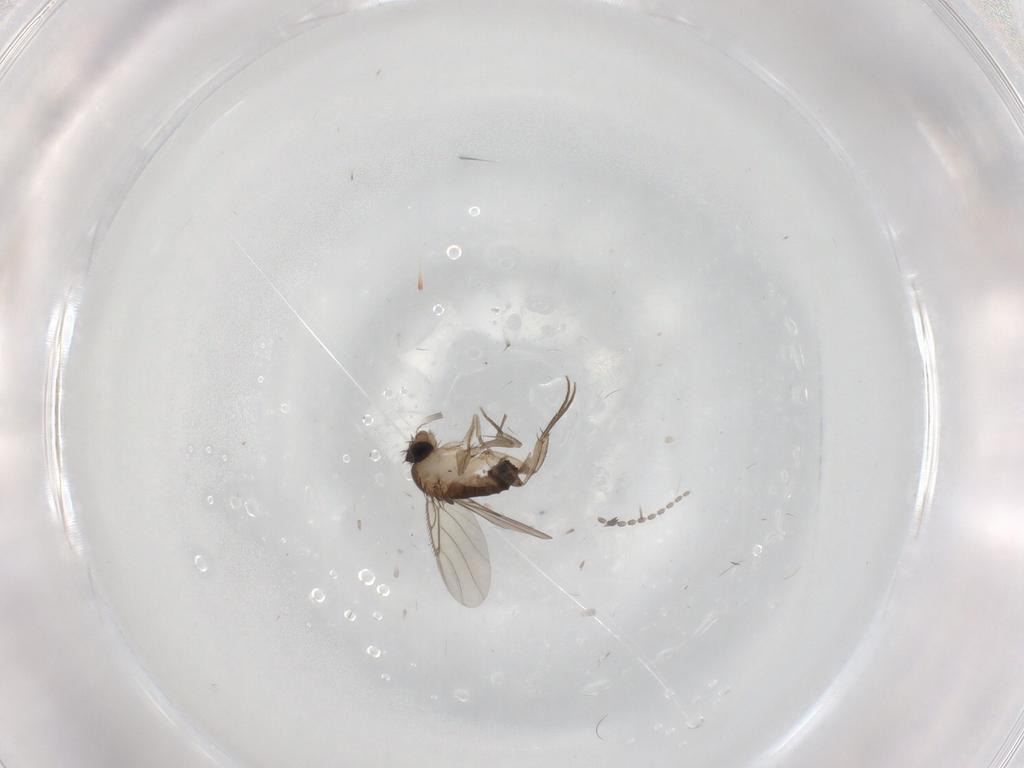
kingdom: Animalia
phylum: Arthropoda
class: Insecta
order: Diptera
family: Phoridae
